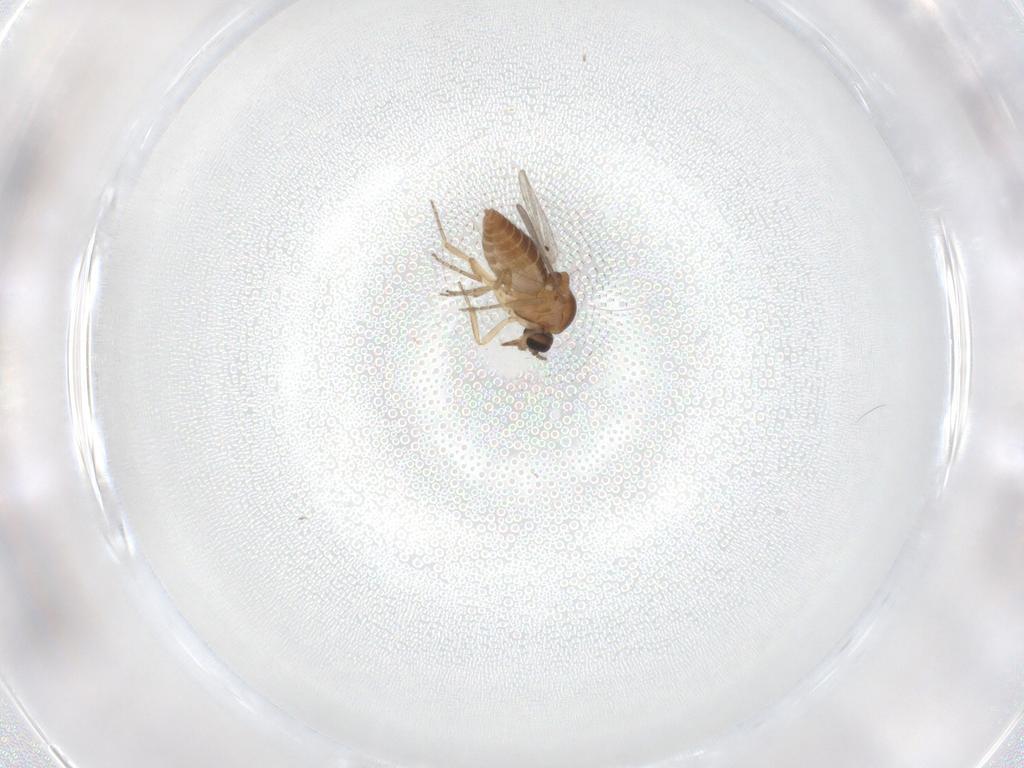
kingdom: Animalia
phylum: Arthropoda
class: Insecta
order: Diptera
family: Ceratopogonidae
